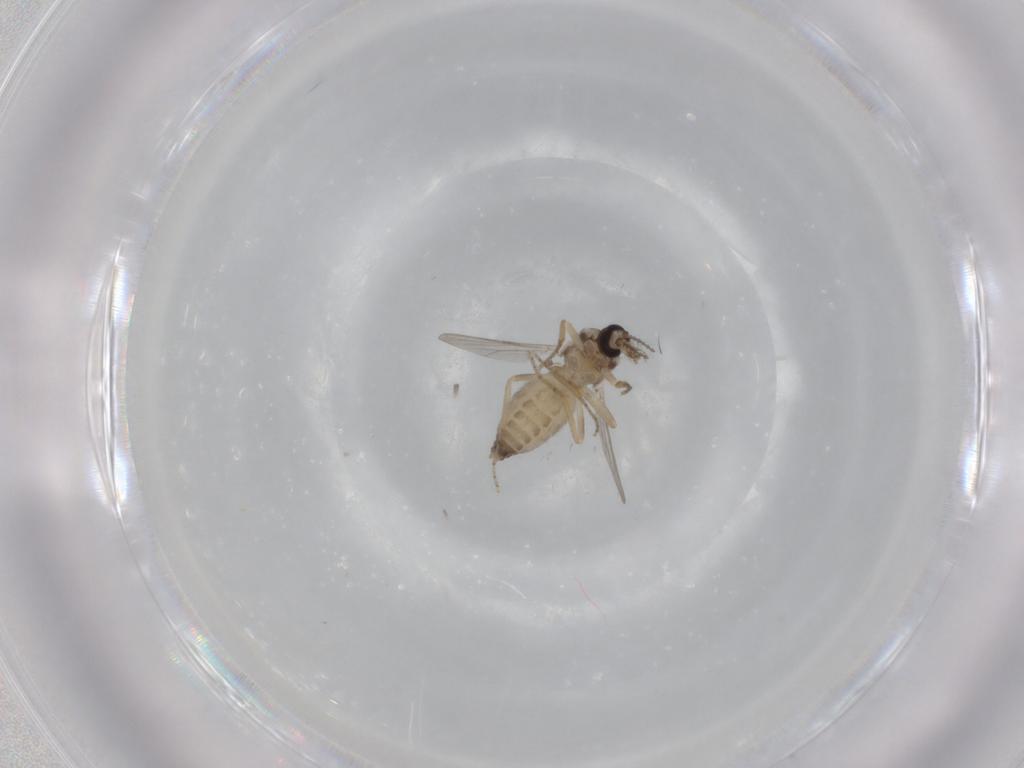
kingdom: Animalia
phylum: Arthropoda
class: Insecta
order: Diptera
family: Ceratopogonidae
